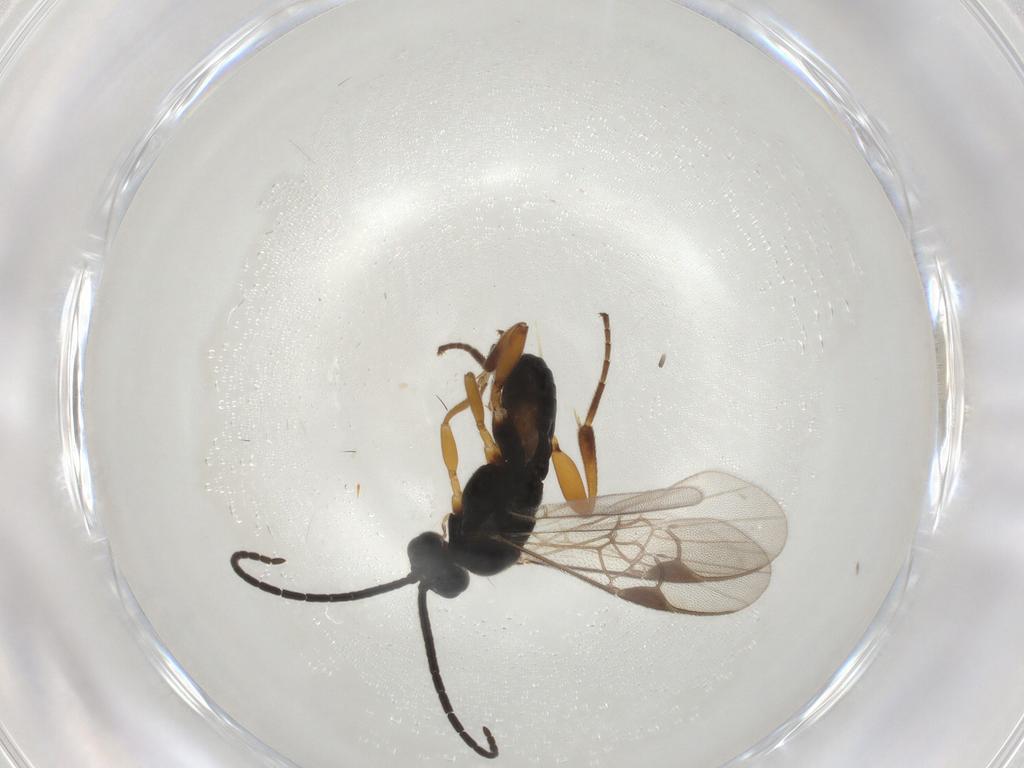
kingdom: Animalia
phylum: Arthropoda
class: Insecta
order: Hymenoptera
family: Braconidae
